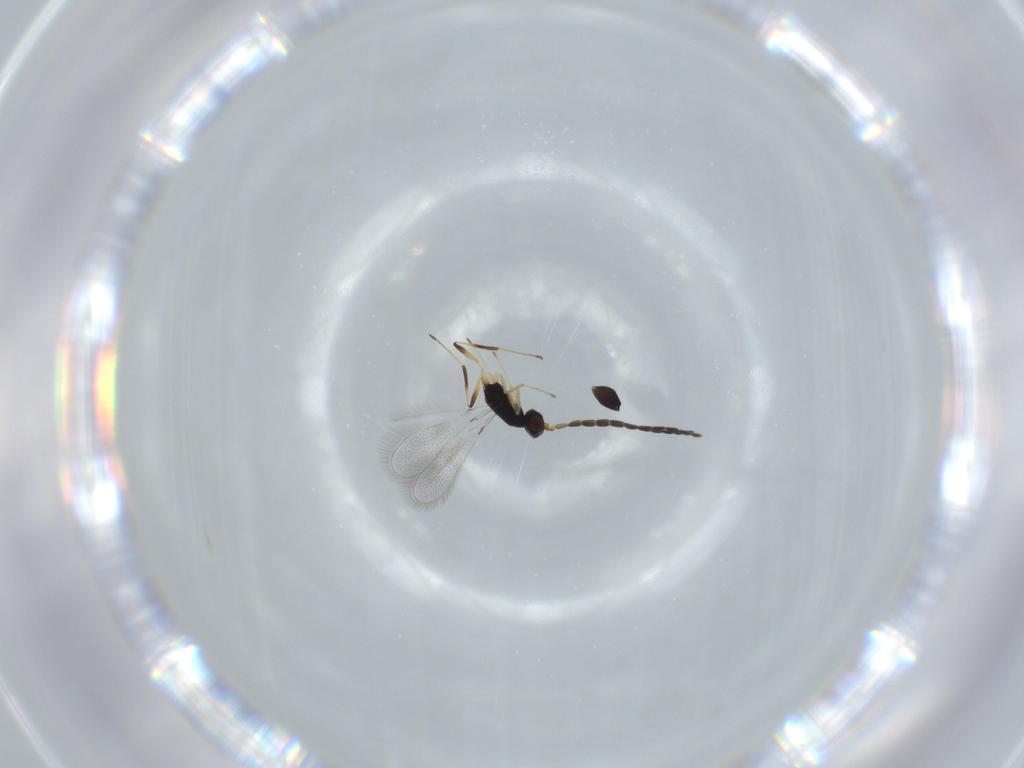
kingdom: Animalia
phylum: Arthropoda
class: Insecta
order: Hymenoptera
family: Mymaridae
